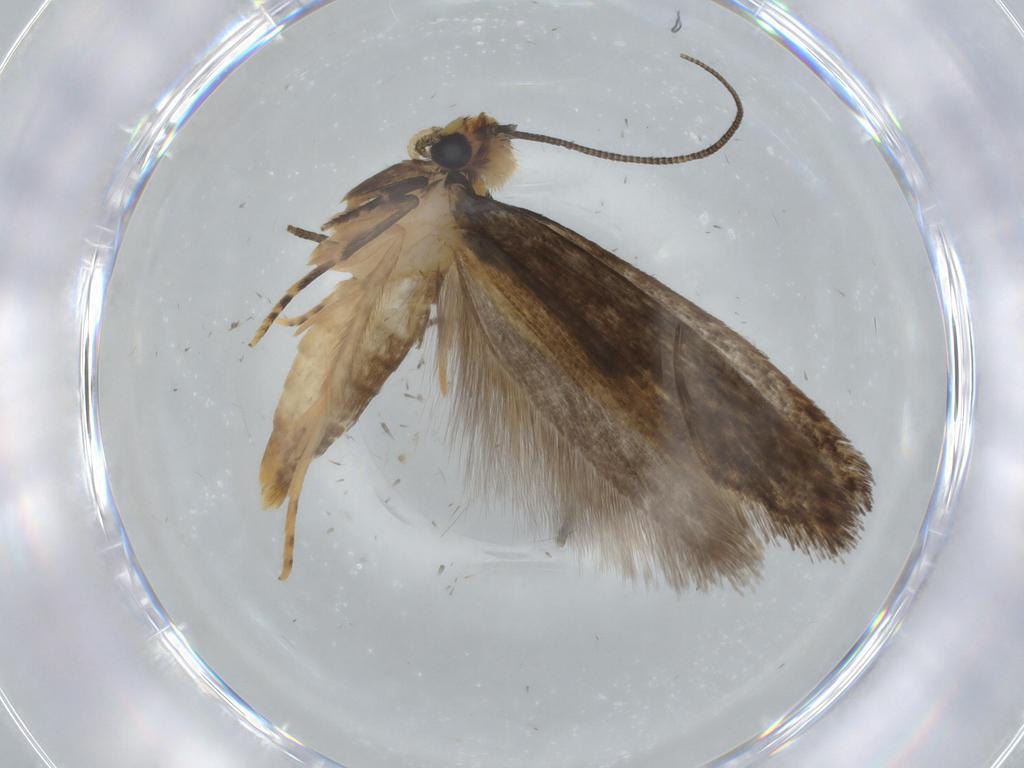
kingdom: Animalia
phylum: Arthropoda
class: Insecta
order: Lepidoptera
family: Tineidae
